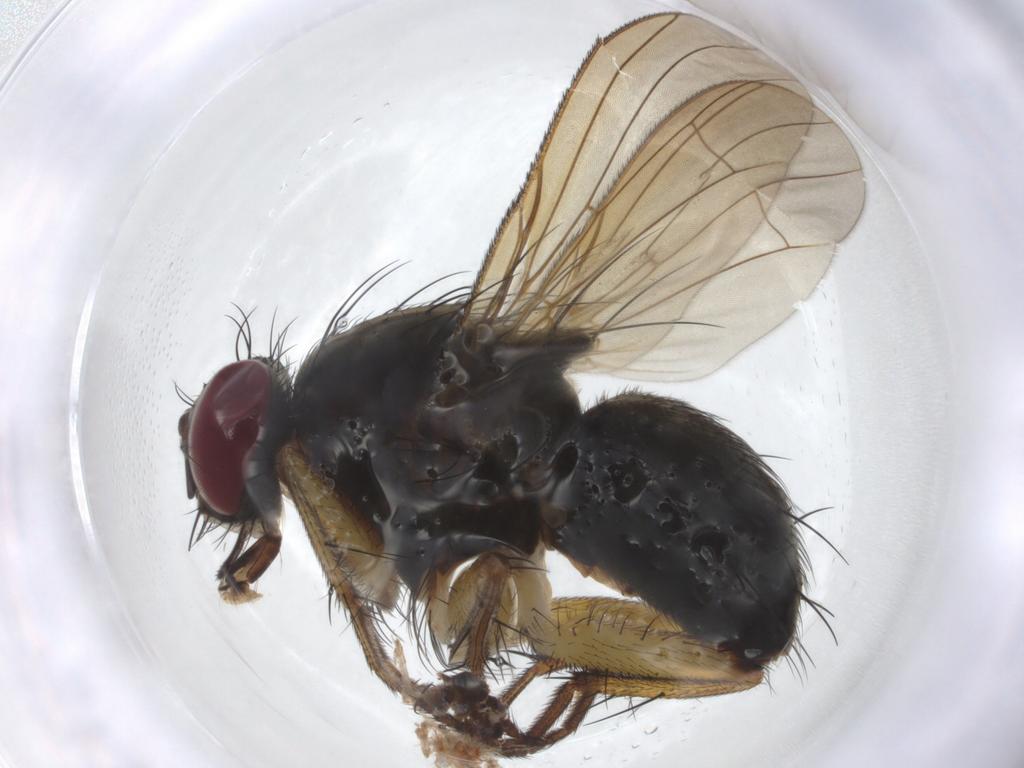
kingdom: Animalia
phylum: Arthropoda
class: Insecta
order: Diptera
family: Muscidae
